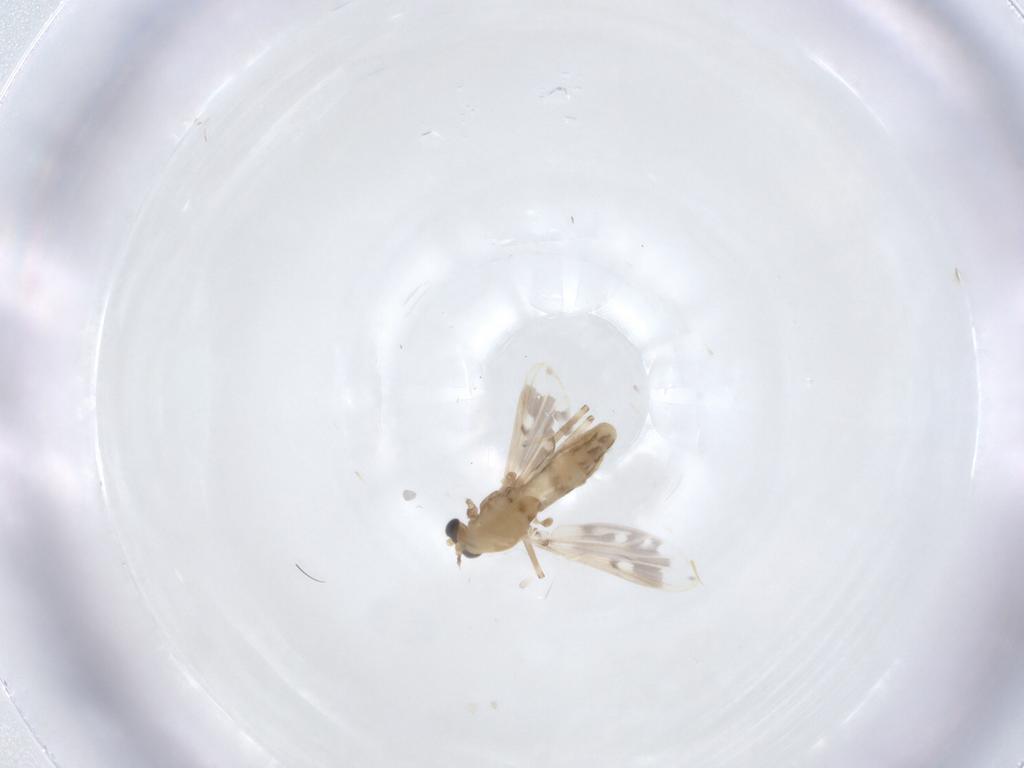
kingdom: Animalia
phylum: Arthropoda
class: Insecta
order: Diptera
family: Chironomidae
